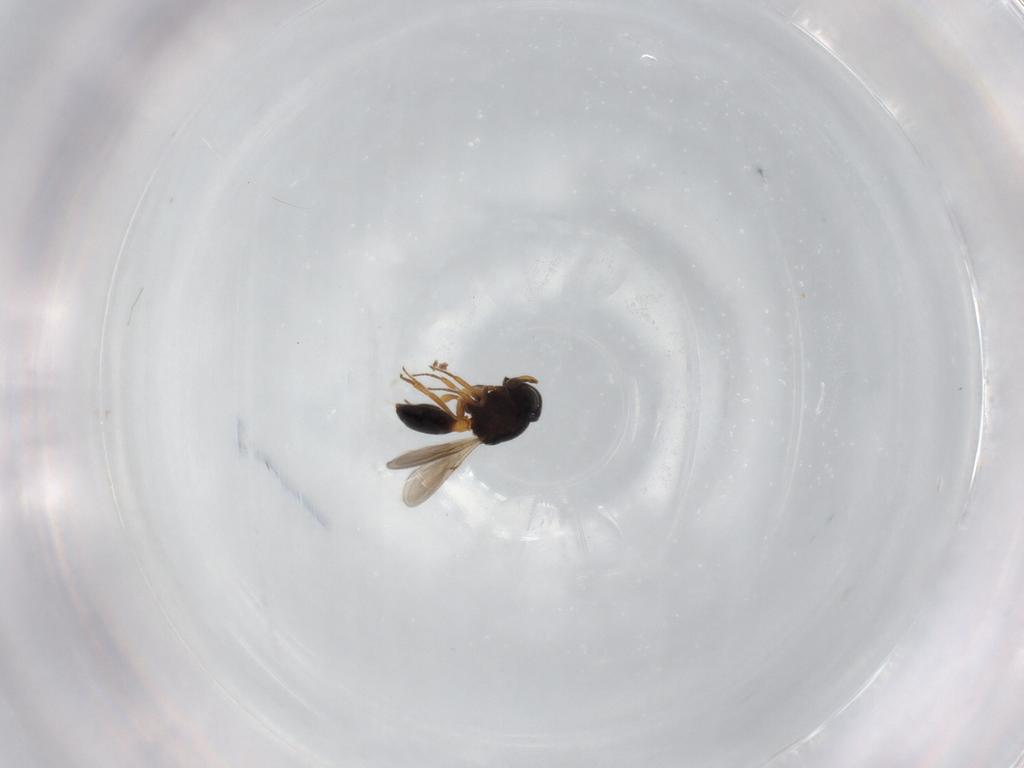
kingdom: Animalia
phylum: Arthropoda
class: Insecta
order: Hymenoptera
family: Scelionidae
